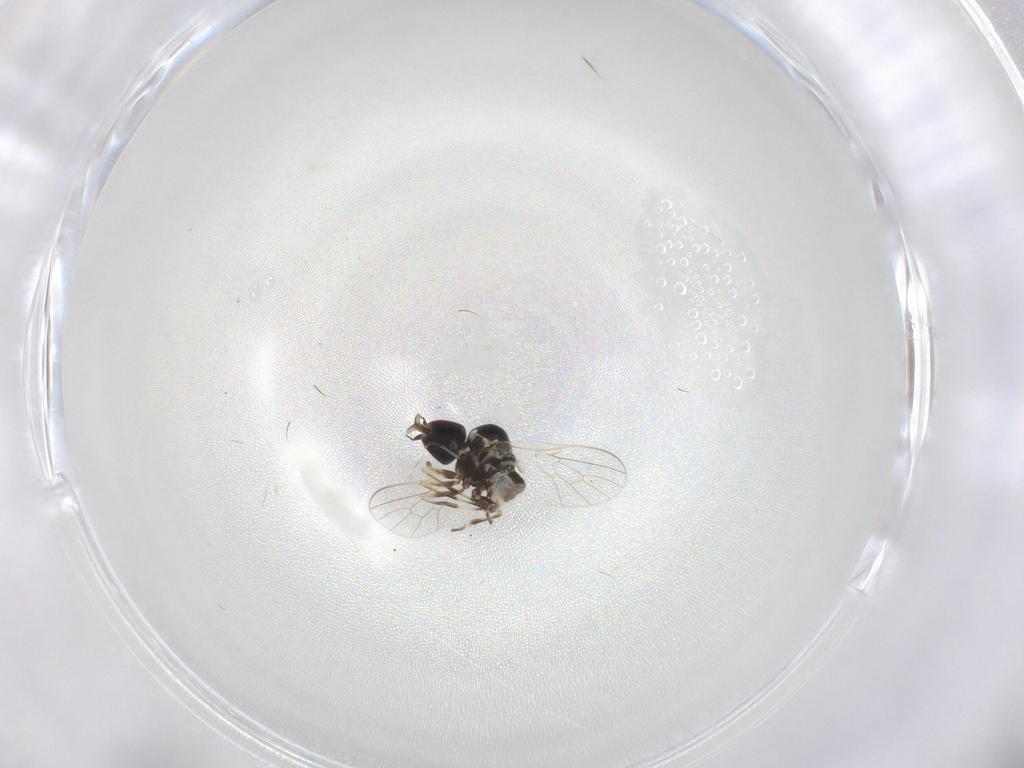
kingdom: Animalia
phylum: Arthropoda
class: Insecta
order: Diptera
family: Bombyliidae
